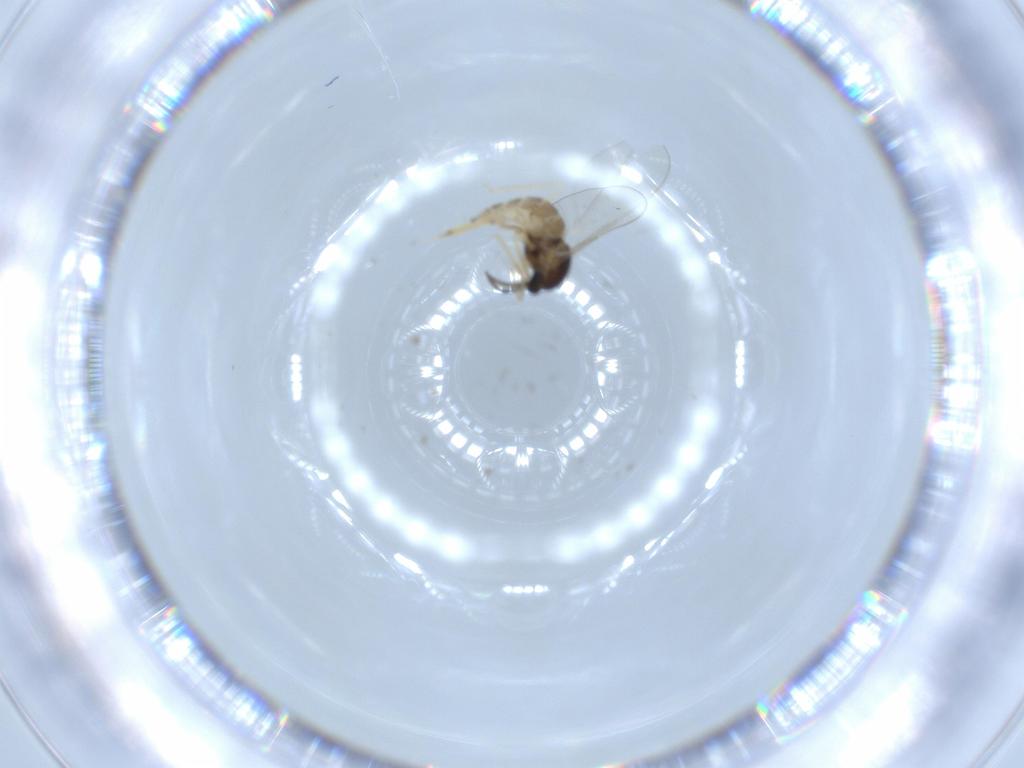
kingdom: Animalia
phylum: Arthropoda
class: Insecta
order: Diptera
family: Cecidomyiidae
